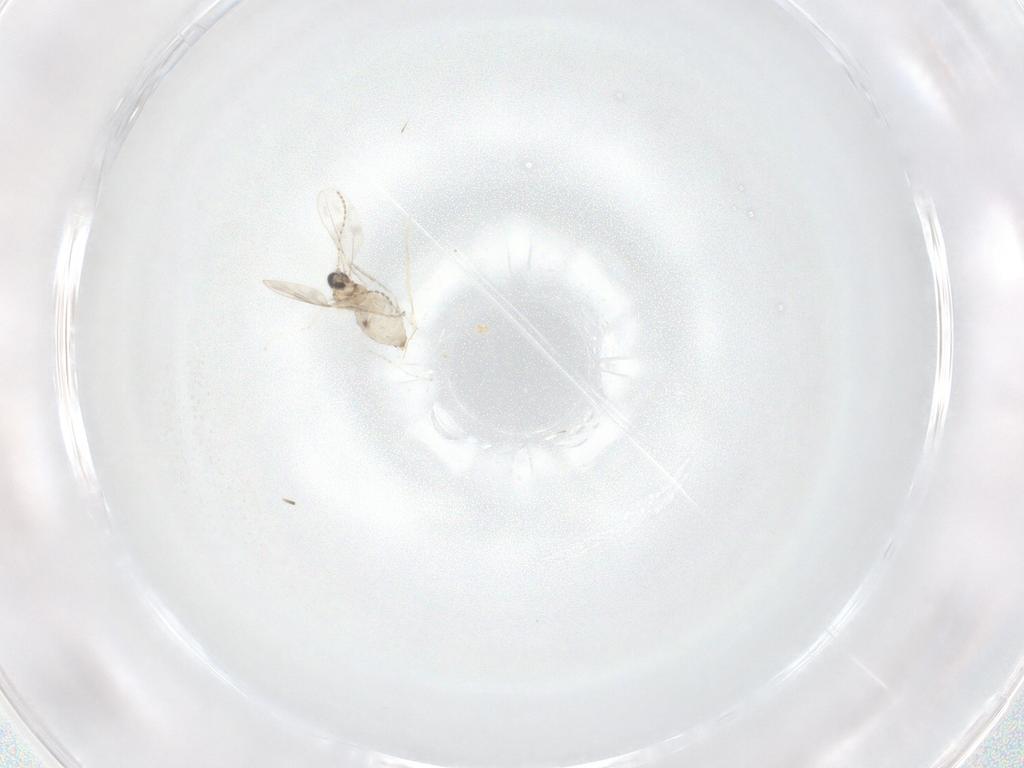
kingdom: Animalia
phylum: Arthropoda
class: Insecta
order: Diptera
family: Cecidomyiidae
